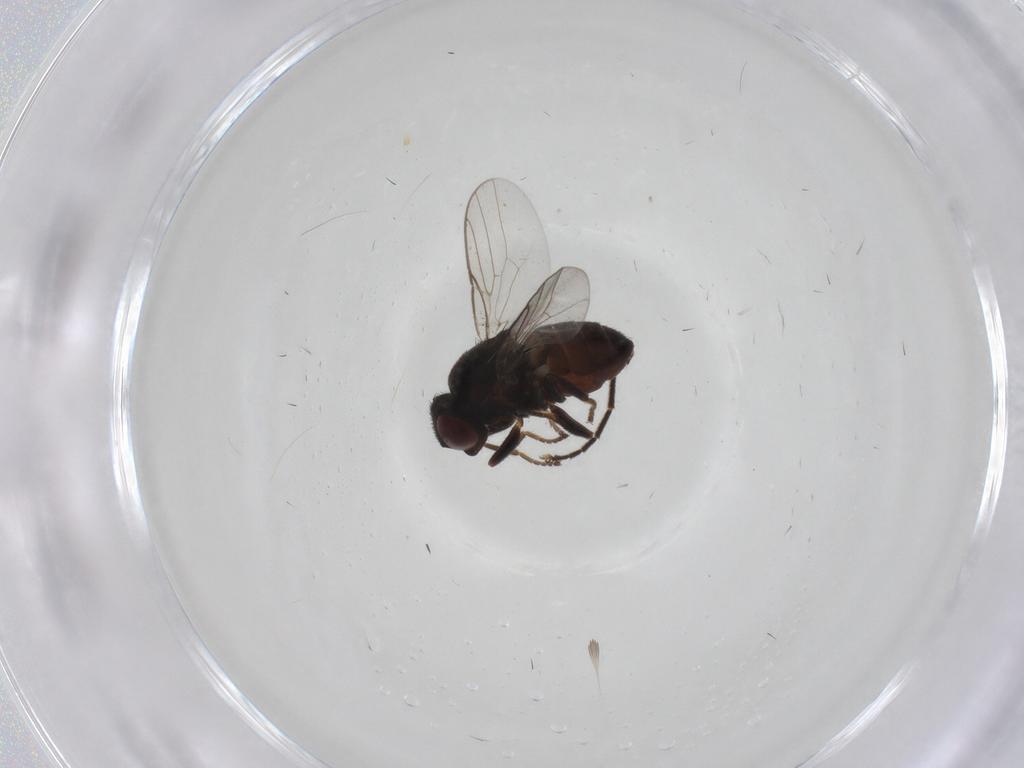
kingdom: Animalia
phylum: Arthropoda
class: Insecta
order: Diptera
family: Chloropidae
